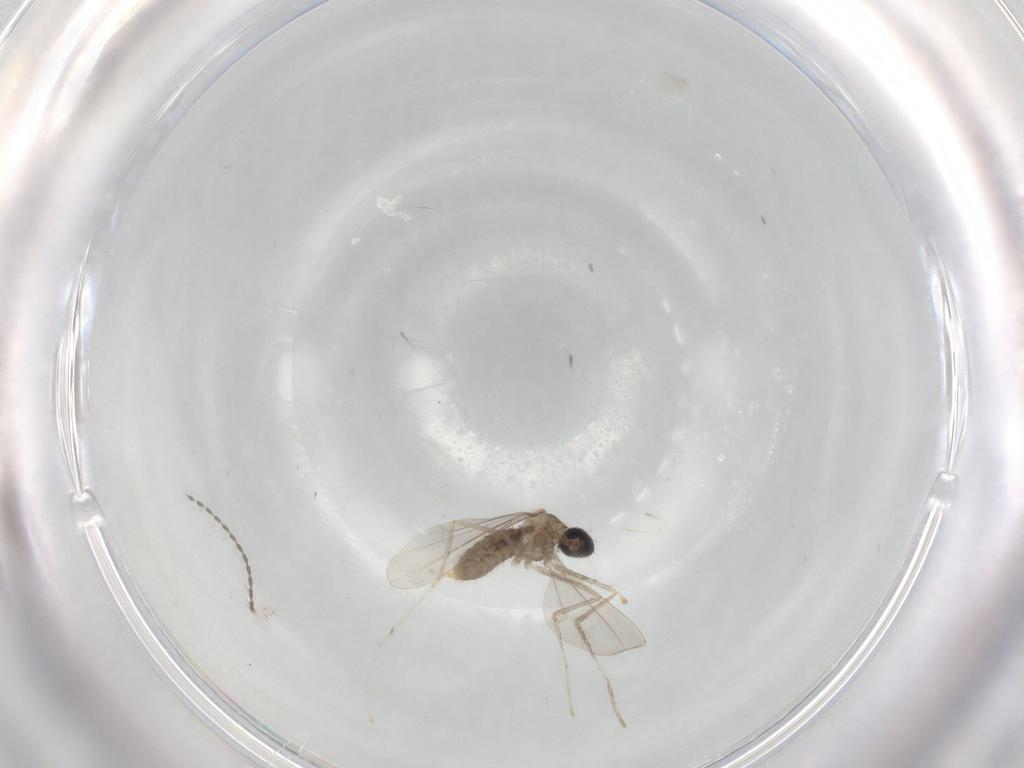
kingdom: Animalia
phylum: Arthropoda
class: Insecta
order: Diptera
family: Cecidomyiidae
